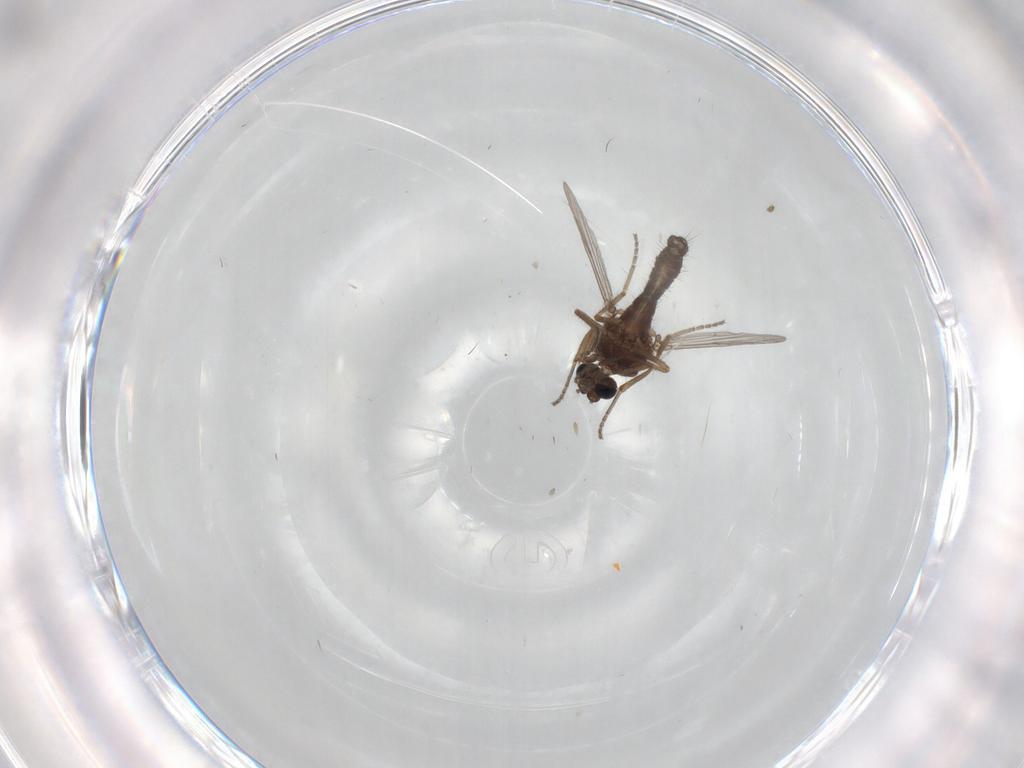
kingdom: Animalia
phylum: Arthropoda
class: Insecta
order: Diptera
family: Ceratopogonidae
